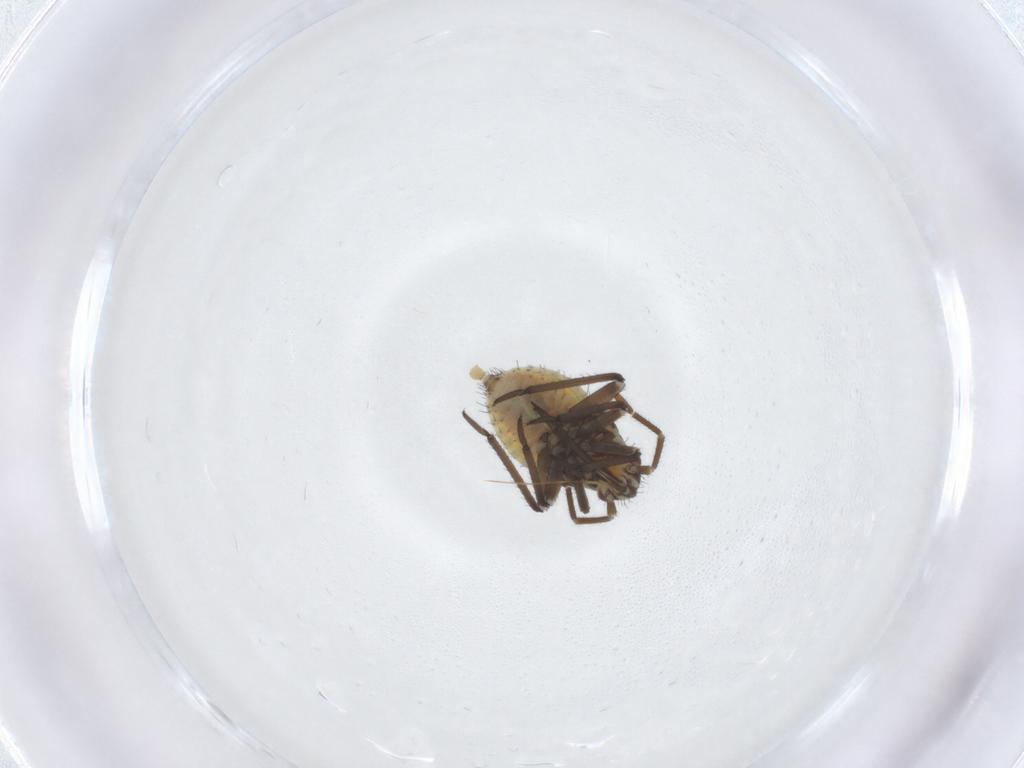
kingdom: Animalia
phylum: Arthropoda
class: Insecta
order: Hemiptera
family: Aphididae
